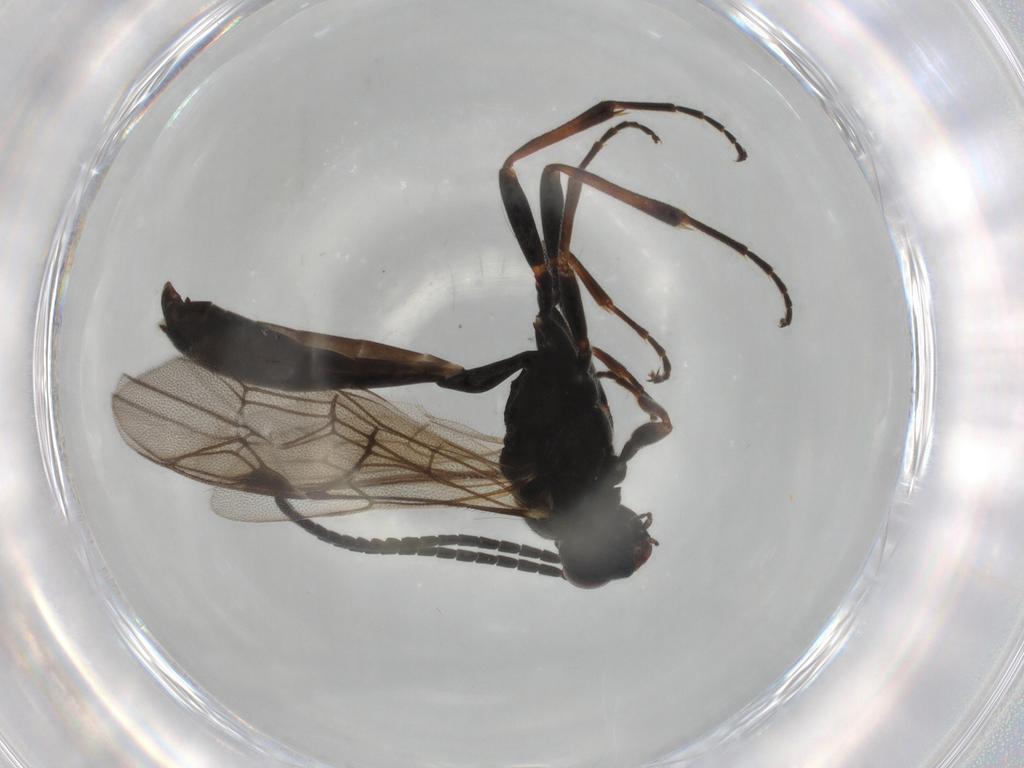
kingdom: Animalia
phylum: Arthropoda
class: Insecta
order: Hymenoptera
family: Ichneumonidae
